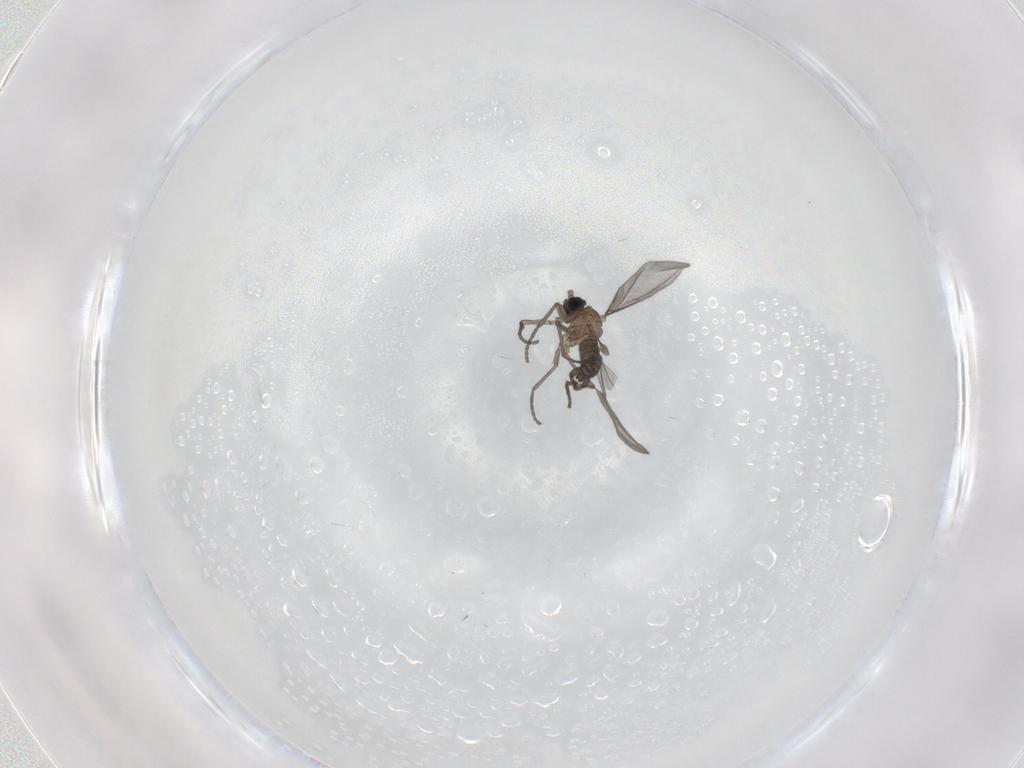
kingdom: Animalia
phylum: Arthropoda
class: Insecta
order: Diptera
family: Sciaridae
